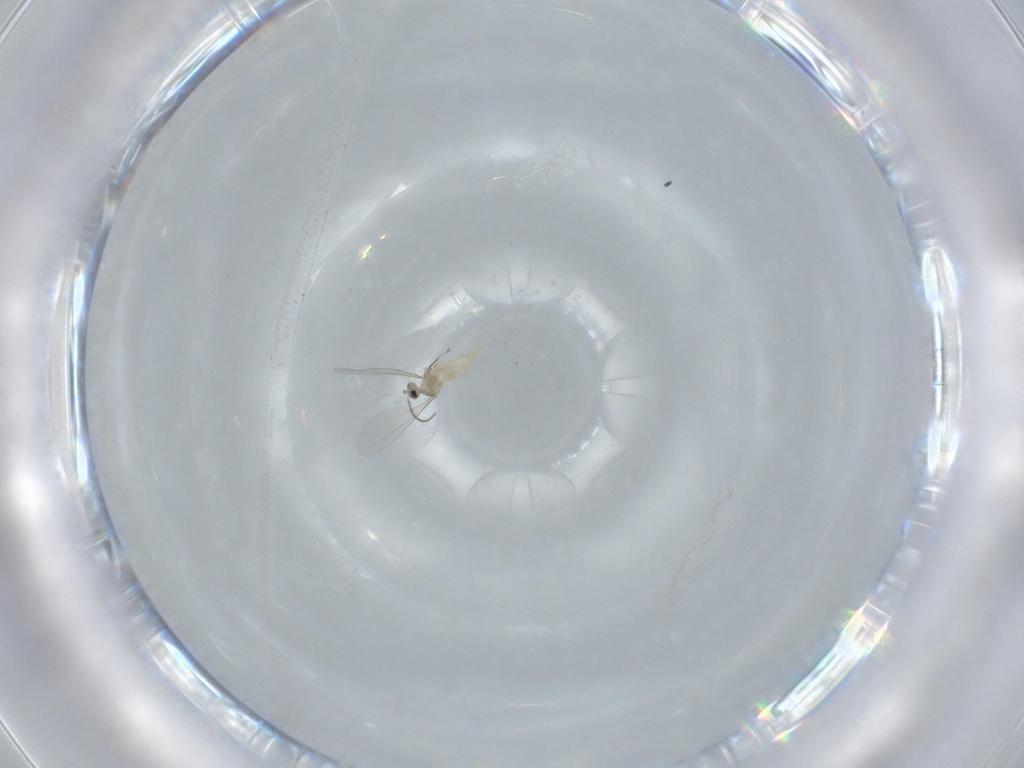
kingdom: Animalia
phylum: Arthropoda
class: Insecta
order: Diptera
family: Cecidomyiidae
